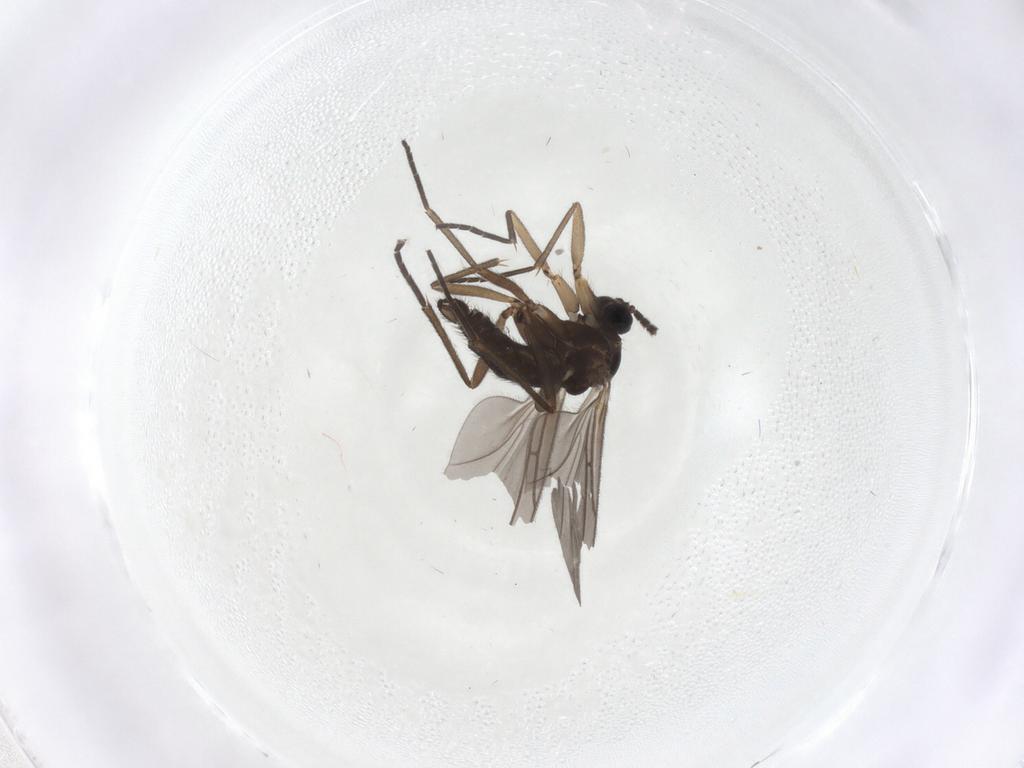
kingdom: Animalia
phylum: Arthropoda
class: Insecta
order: Diptera
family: Sciaridae
